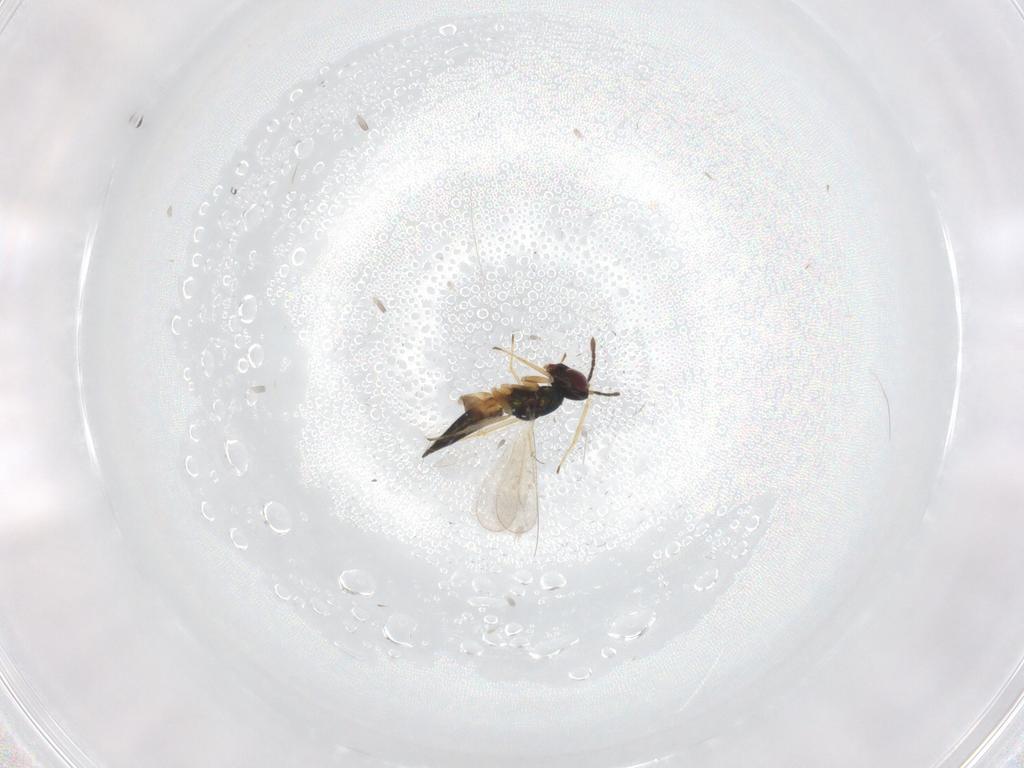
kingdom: Animalia
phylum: Arthropoda
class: Insecta
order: Hymenoptera
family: Eulophidae
